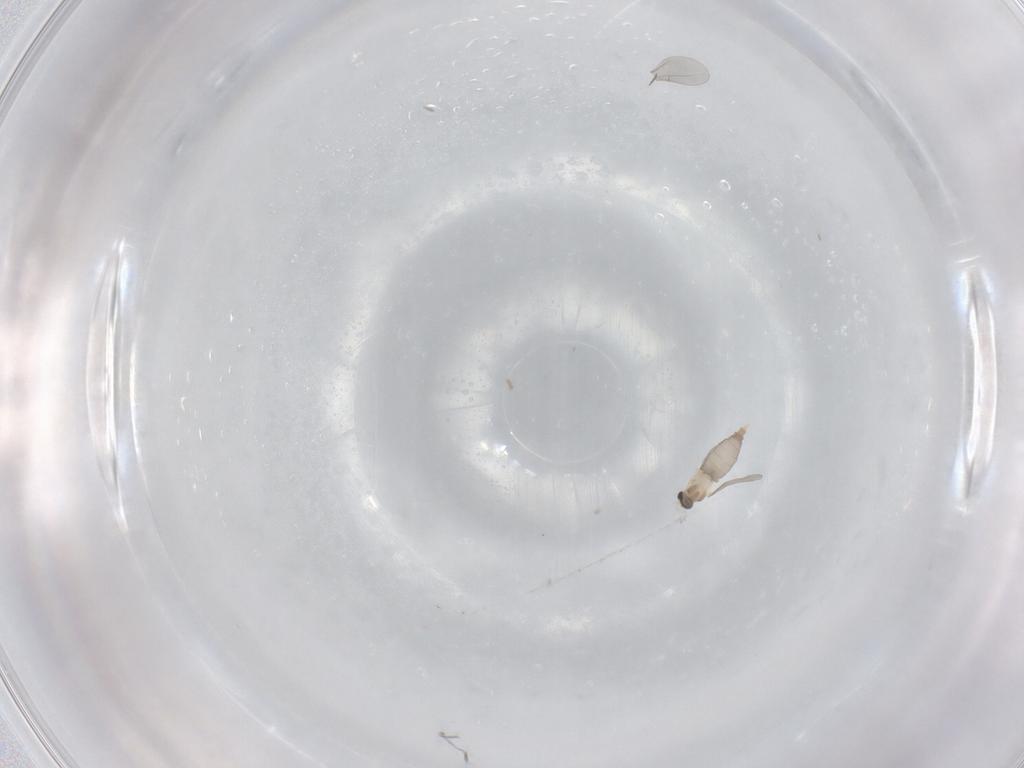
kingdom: Animalia
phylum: Arthropoda
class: Insecta
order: Diptera
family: Chironomidae
